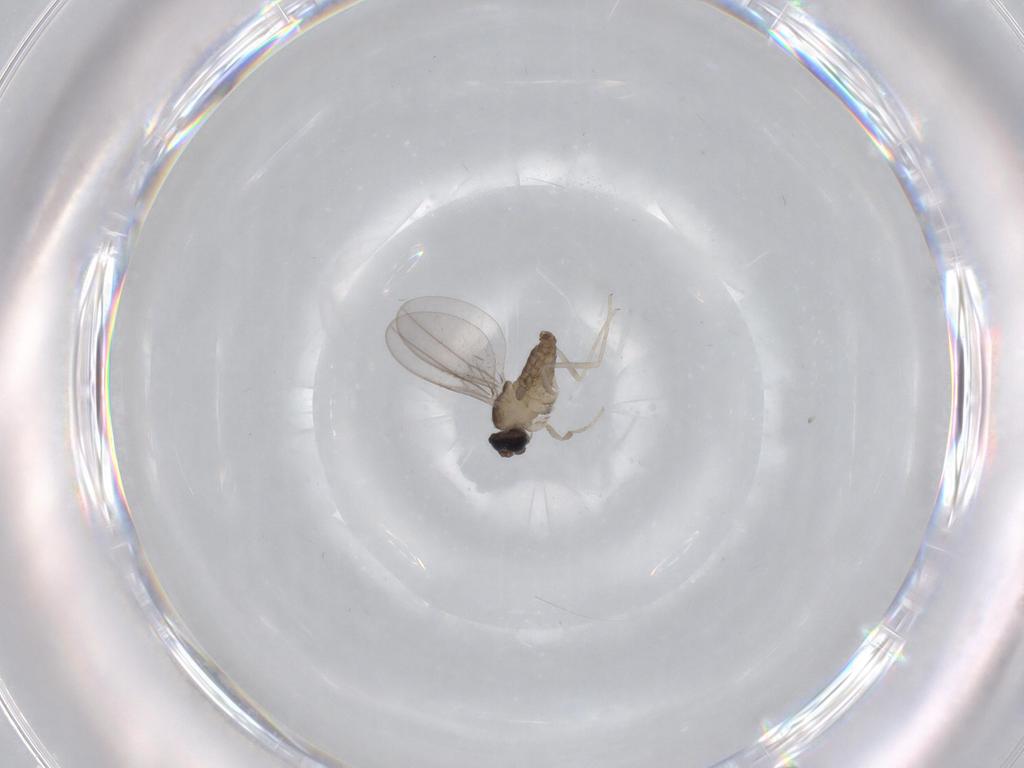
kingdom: Animalia
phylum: Arthropoda
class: Insecta
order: Diptera
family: Cecidomyiidae
